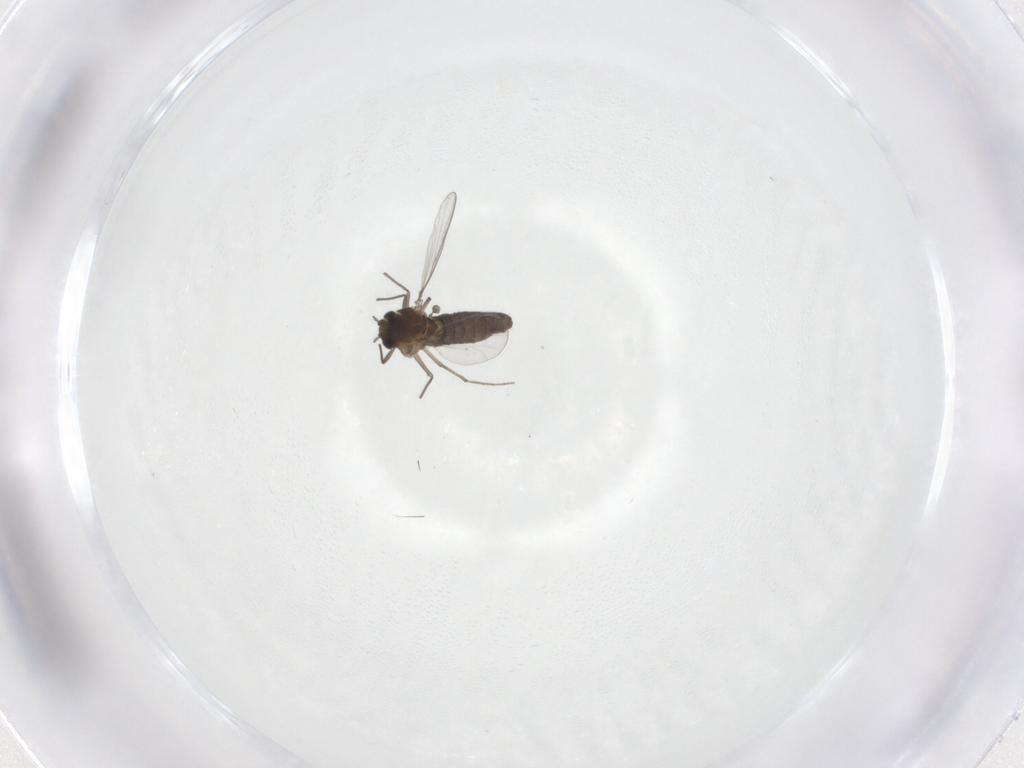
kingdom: Animalia
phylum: Arthropoda
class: Insecta
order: Diptera
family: Chironomidae
